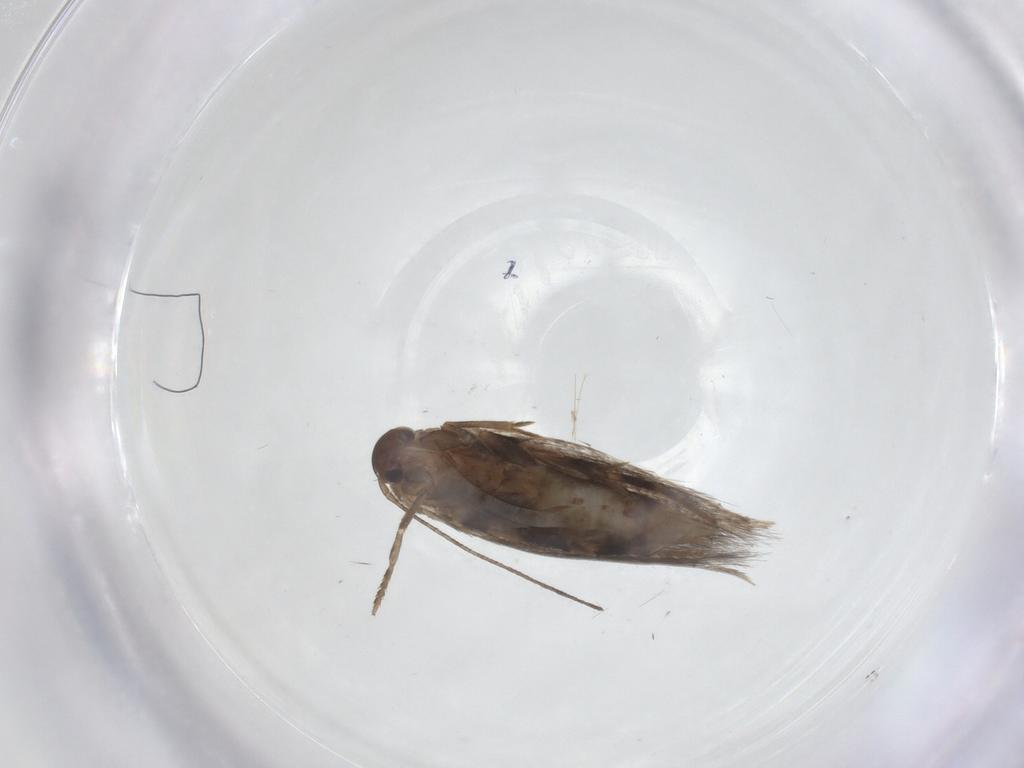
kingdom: Animalia
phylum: Arthropoda
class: Insecta
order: Lepidoptera
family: Elachistidae
